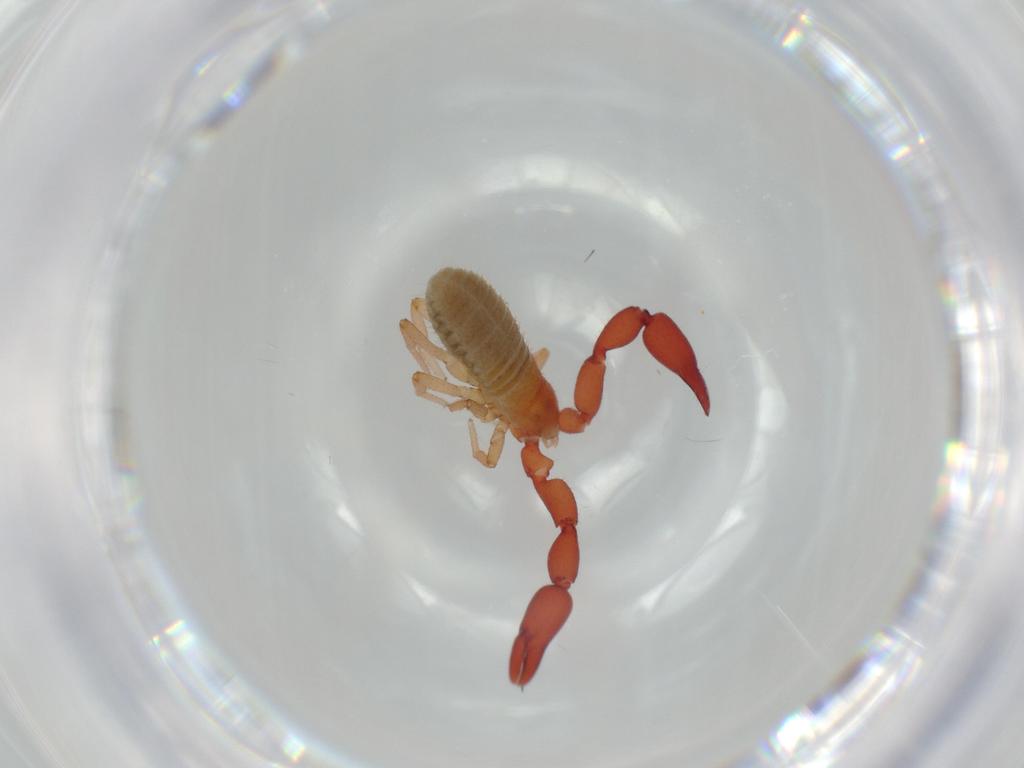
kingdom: Animalia
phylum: Arthropoda
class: Arachnida
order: Pseudoscorpiones
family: Chernetidae
